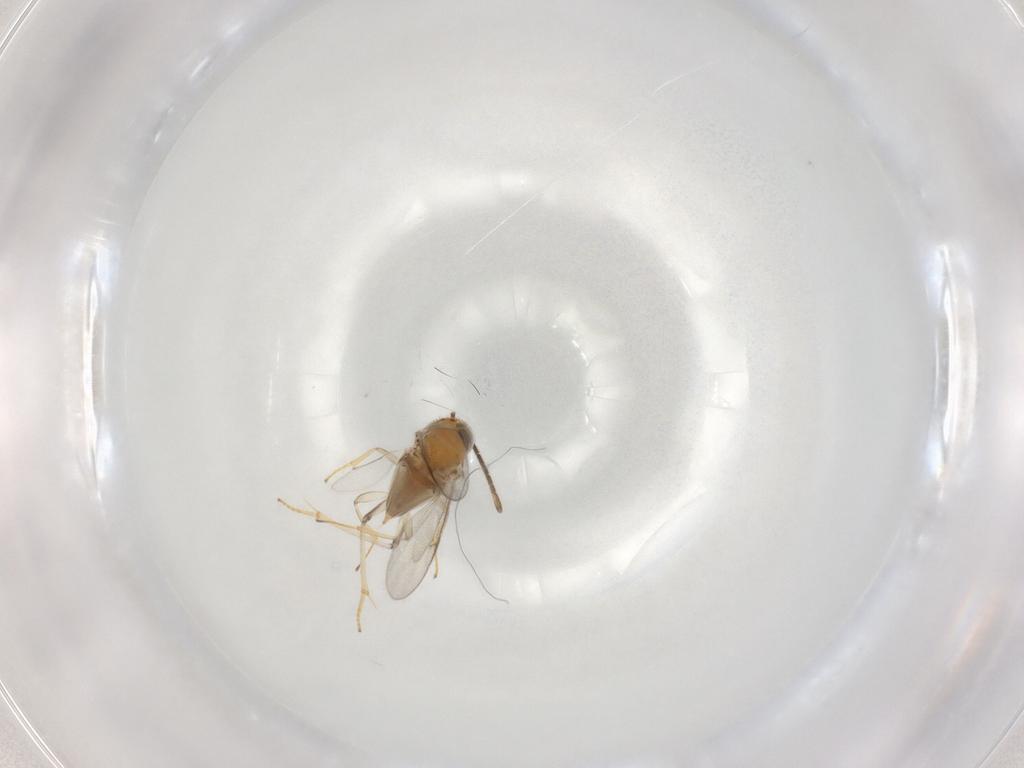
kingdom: Animalia
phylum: Arthropoda
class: Insecta
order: Hymenoptera
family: Encyrtidae
